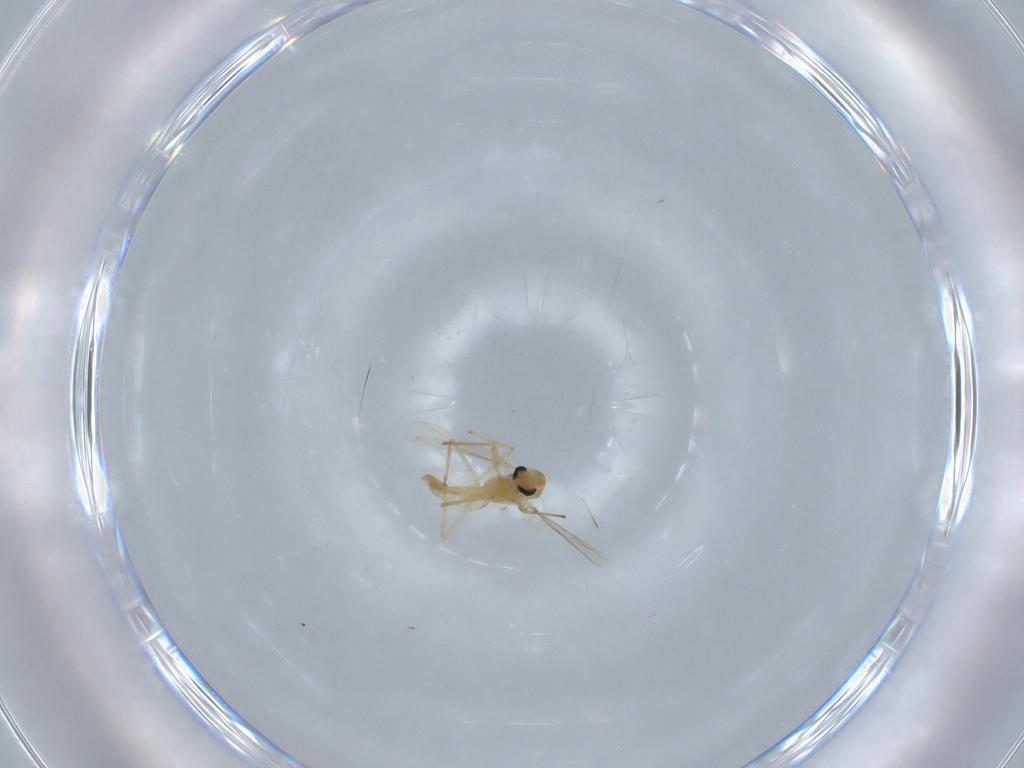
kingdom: Animalia
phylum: Arthropoda
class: Insecta
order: Diptera
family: Chironomidae
